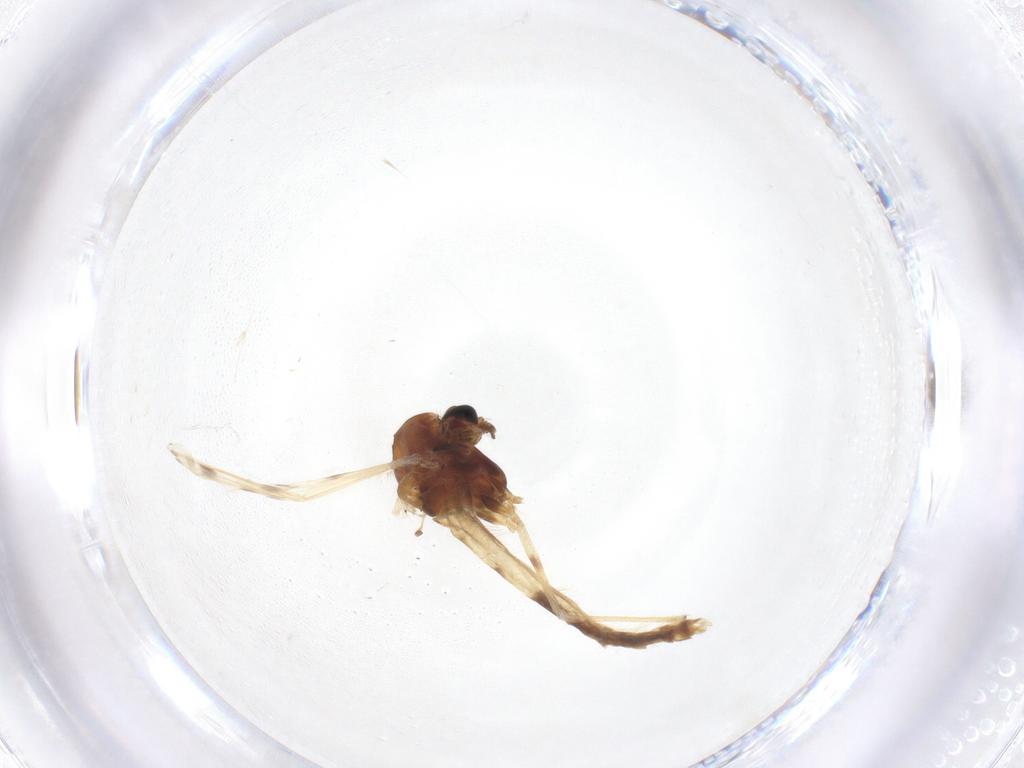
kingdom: Animalia
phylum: Arthropoda
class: Insecta
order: Diptera
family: Chironomidae
